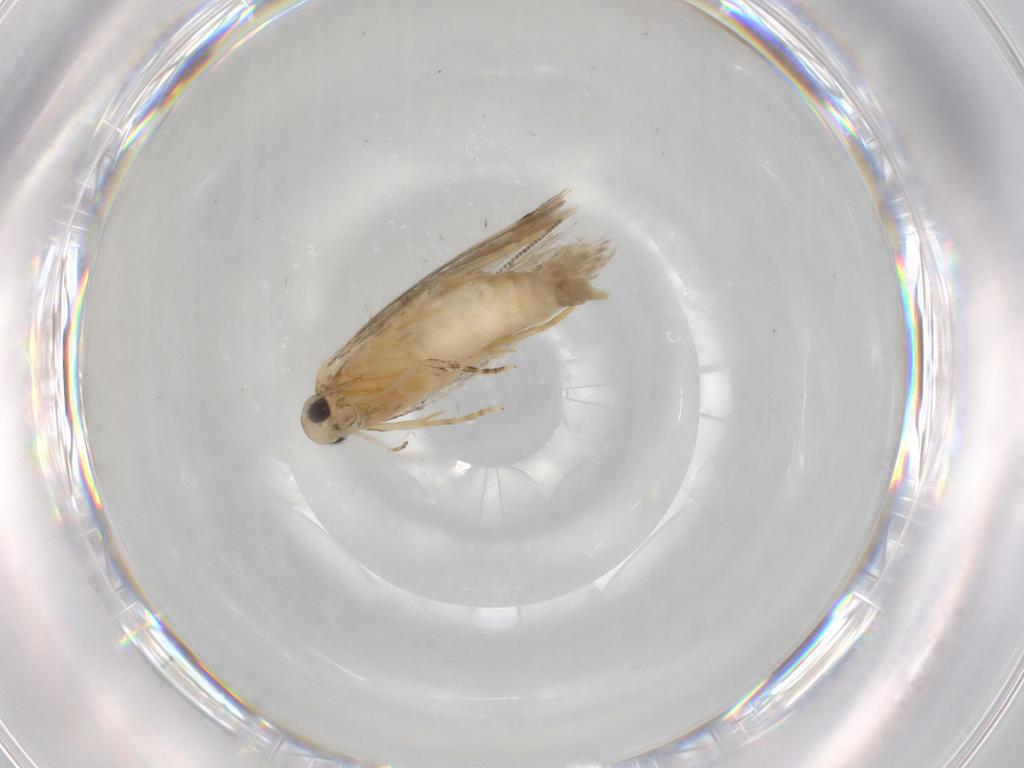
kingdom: Animalia
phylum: Arthropoda
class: Insecta
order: Lepidoptera
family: Autostichidae
